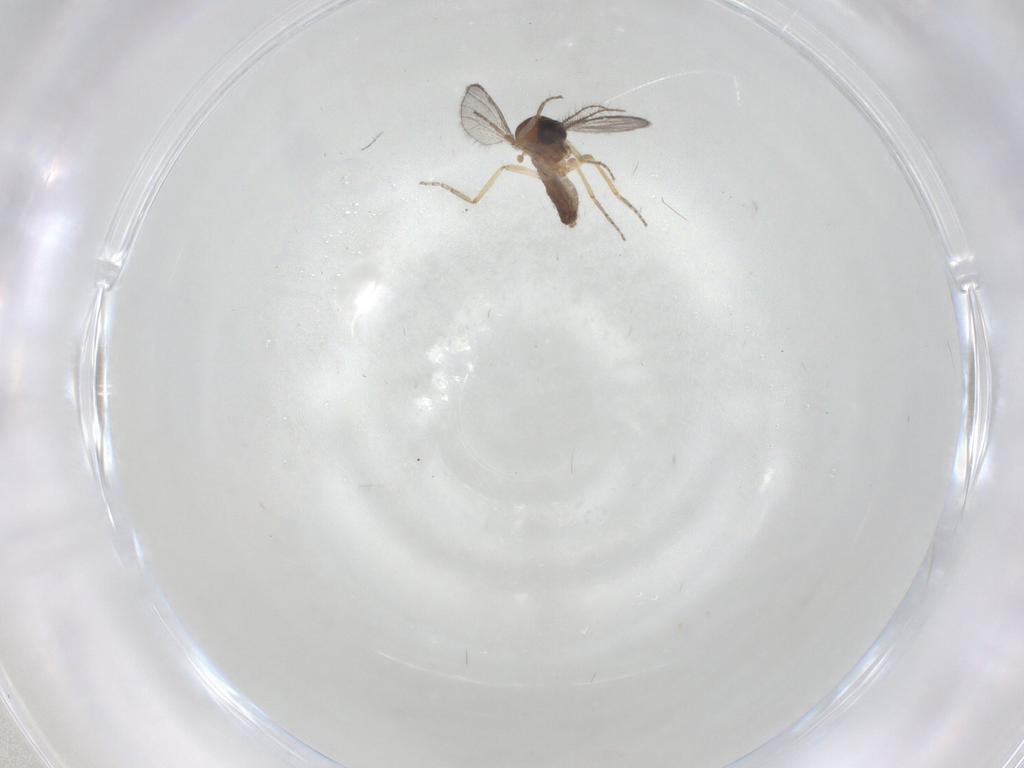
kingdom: Animalia
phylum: Arthropoda
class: Insecta
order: Diptera
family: Ceratopogonidae
